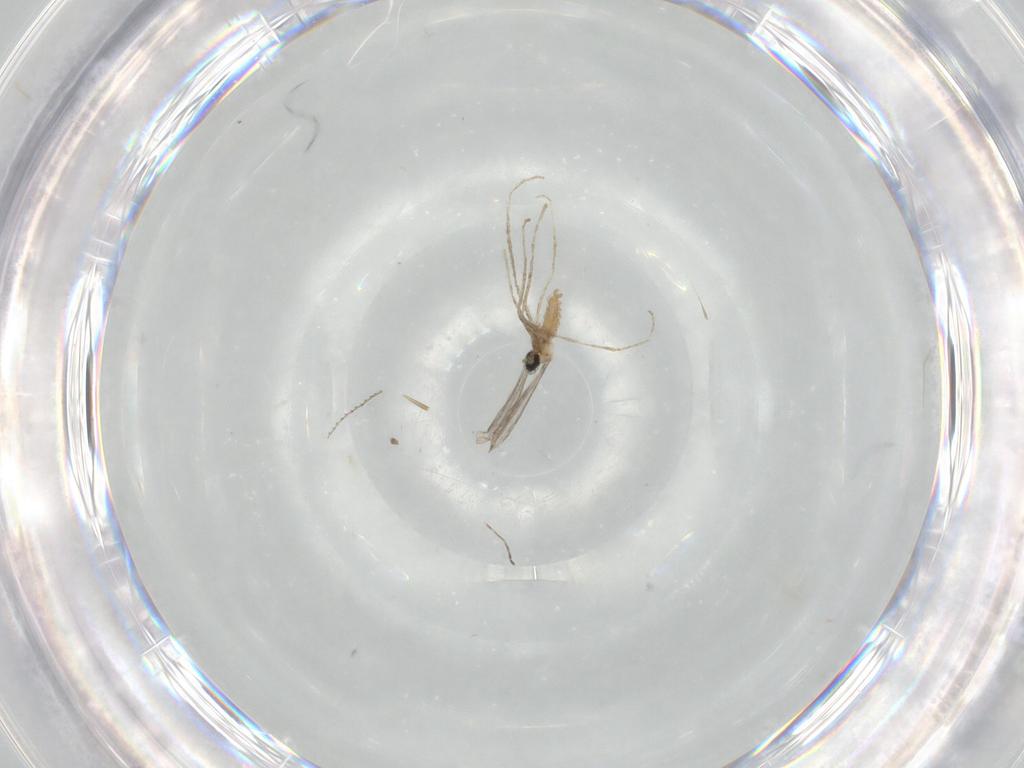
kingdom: Animalia
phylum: Arthropoda
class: Insecta
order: Diptera
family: Cecidomyiidae
